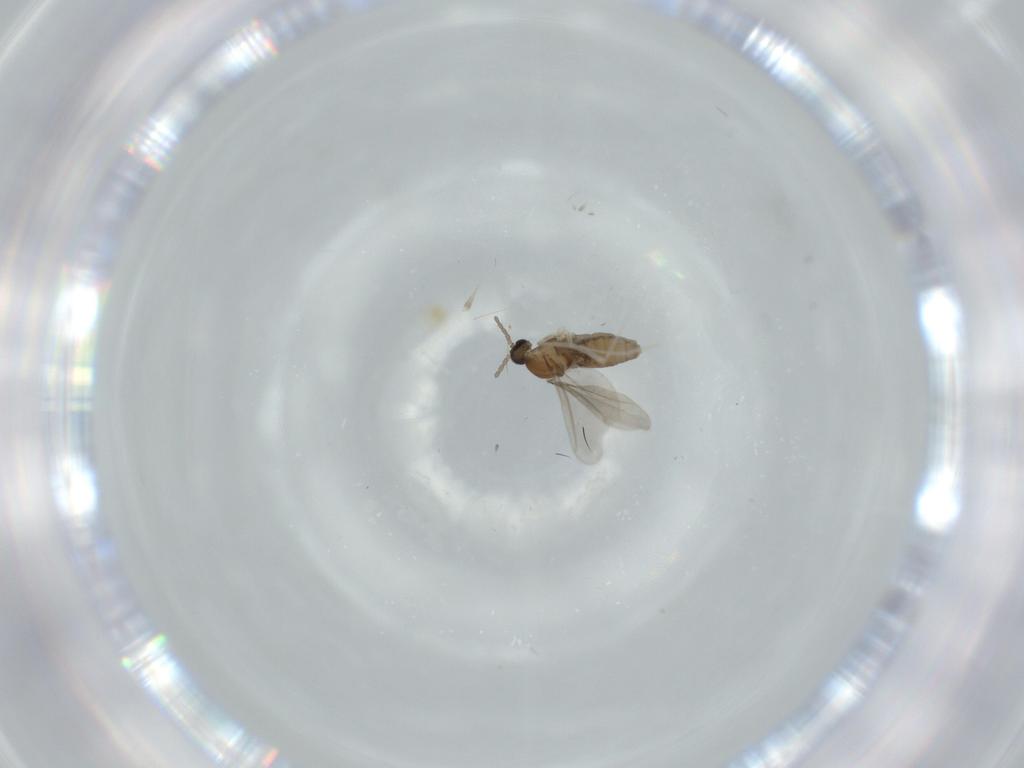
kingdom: Animalia
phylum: Arthropoda
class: Insecta
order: Diptera
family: Cecidomyiidae
